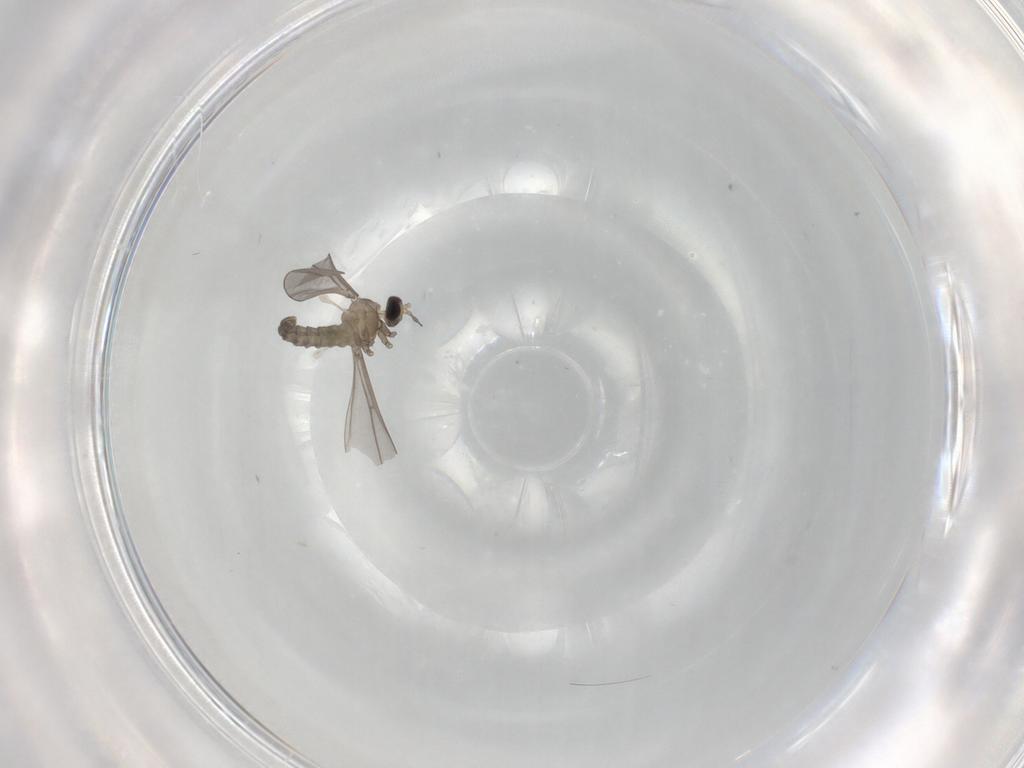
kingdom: Animalia
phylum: Arthropoda
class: Insecta
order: Diptera
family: Cecidomyiidae
